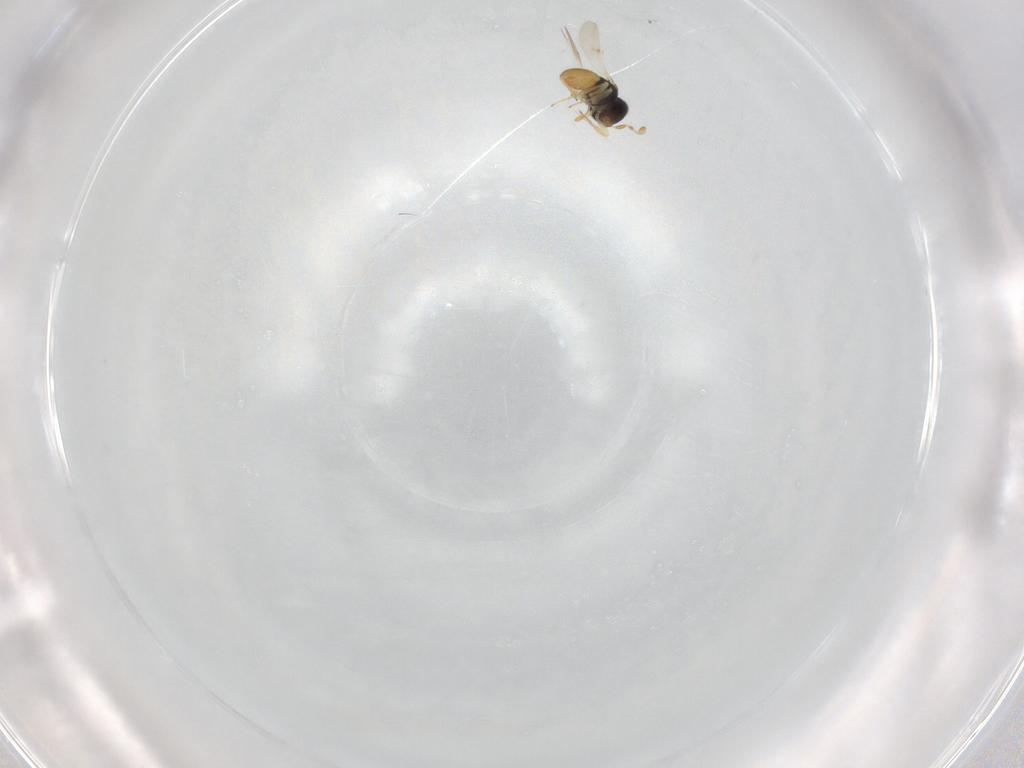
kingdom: Animalia
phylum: Arthropoda
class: Insecta
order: Hymenoptera
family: Scelionidae
